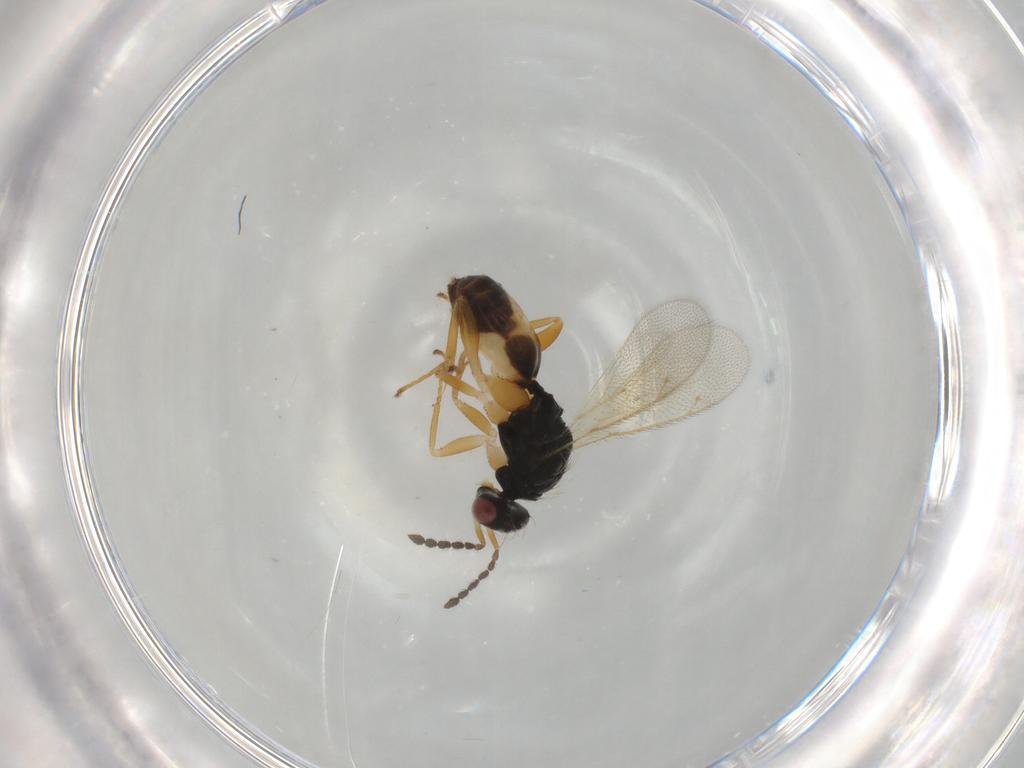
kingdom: Animalia
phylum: Arthropoda
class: Insecta
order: Hymenoptera
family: Eulophidae
